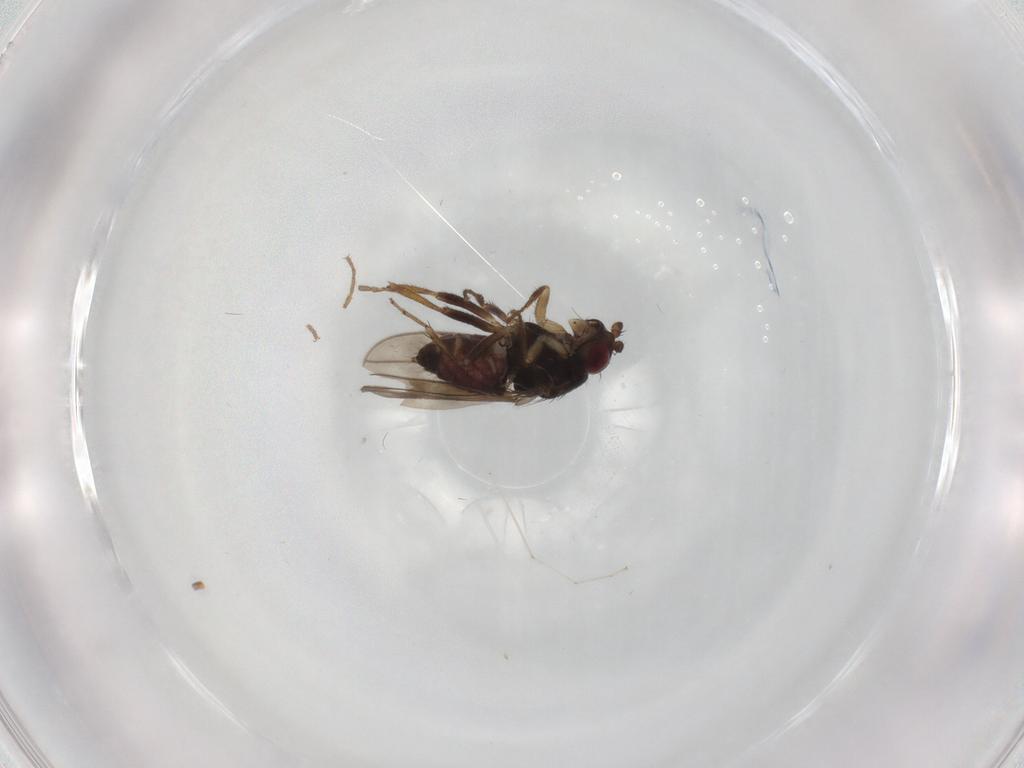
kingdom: Animalia
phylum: Arthropoda
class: Insecta
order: Diptera
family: Sphaeroceridae
